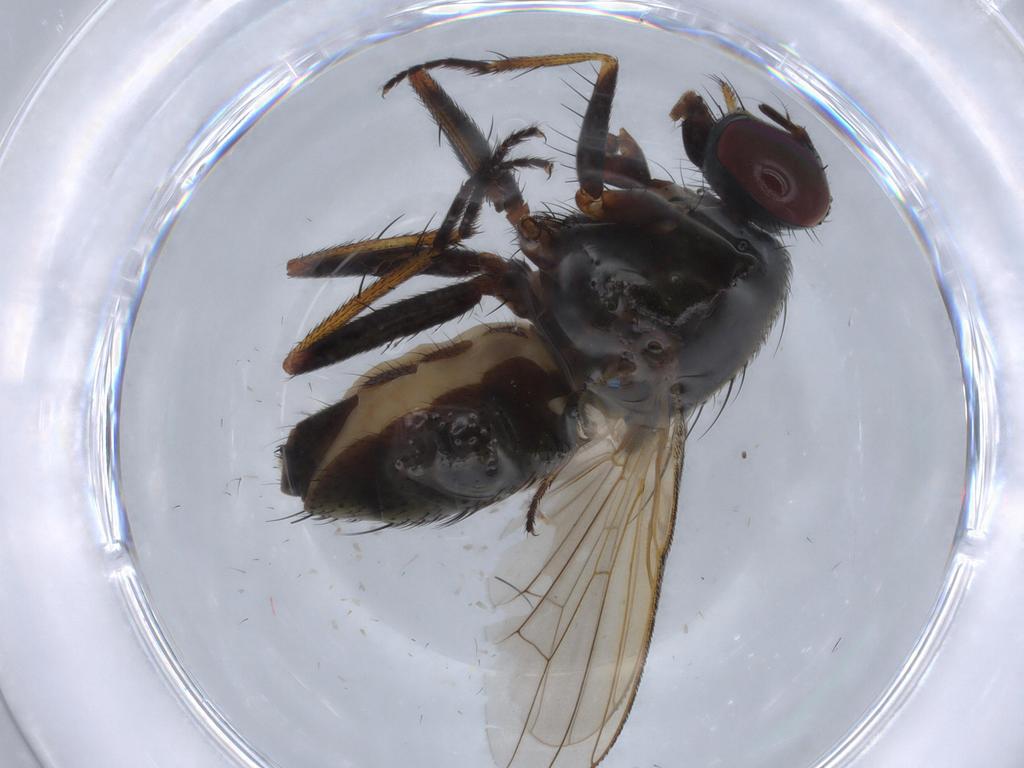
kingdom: Animalia
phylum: Arthropoda
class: Insecta
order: Diptera
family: Muscidae
